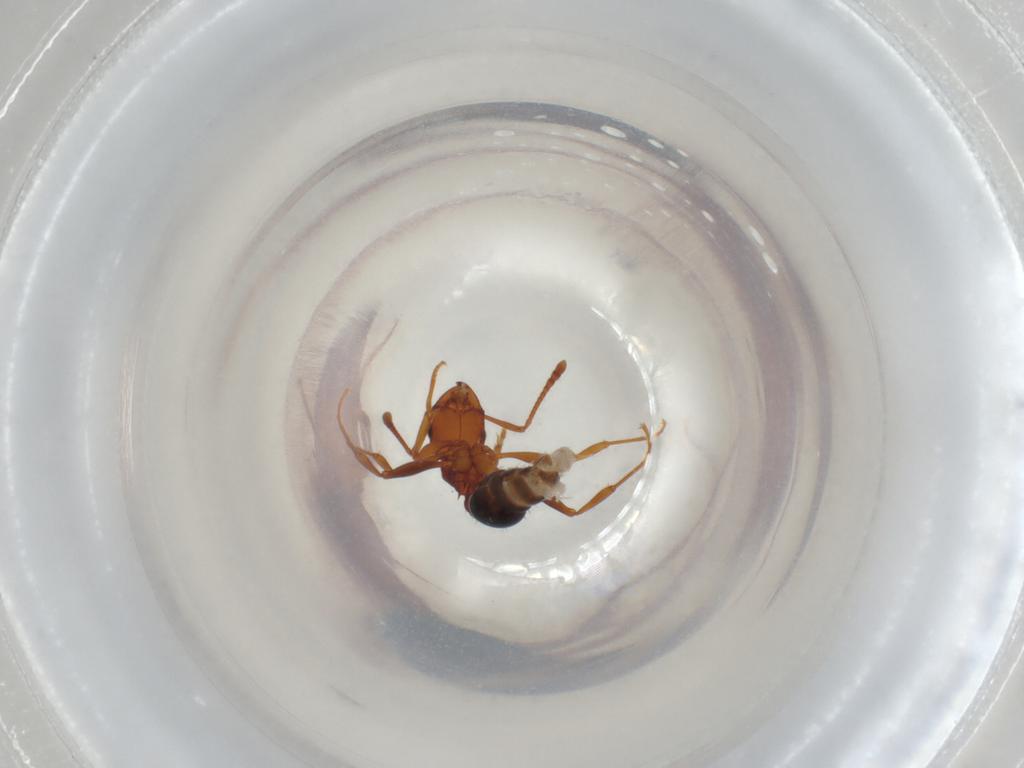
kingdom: Animalia
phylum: Arthropoda
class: Insecta
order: Hymenoptera
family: Formicidae
